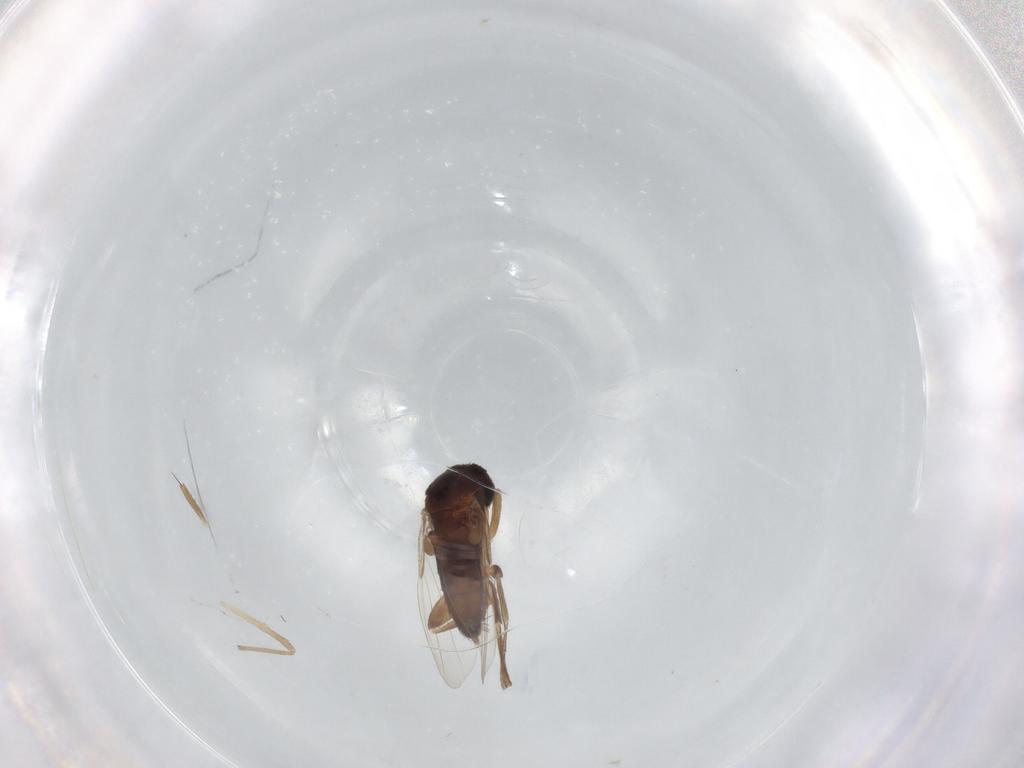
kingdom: Animalia
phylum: Arthropoda
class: Insecta
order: Diptera
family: Phoridae
